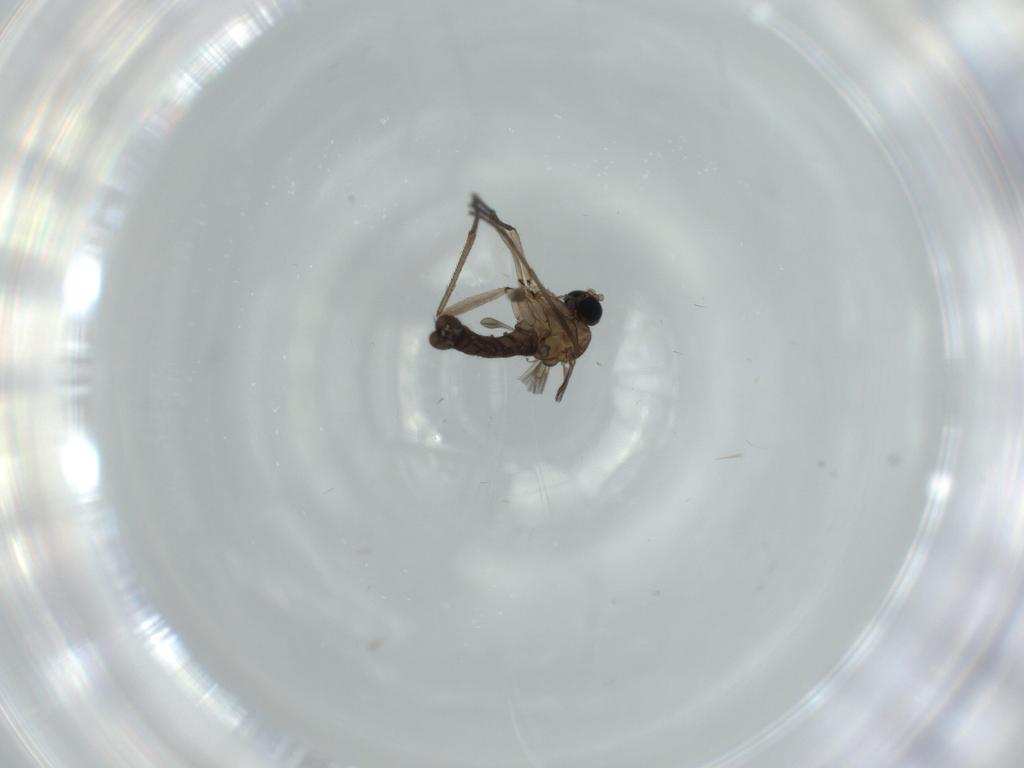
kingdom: Animalia
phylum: Arthropoda
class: Insecta
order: Diptera
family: Sciaridae
